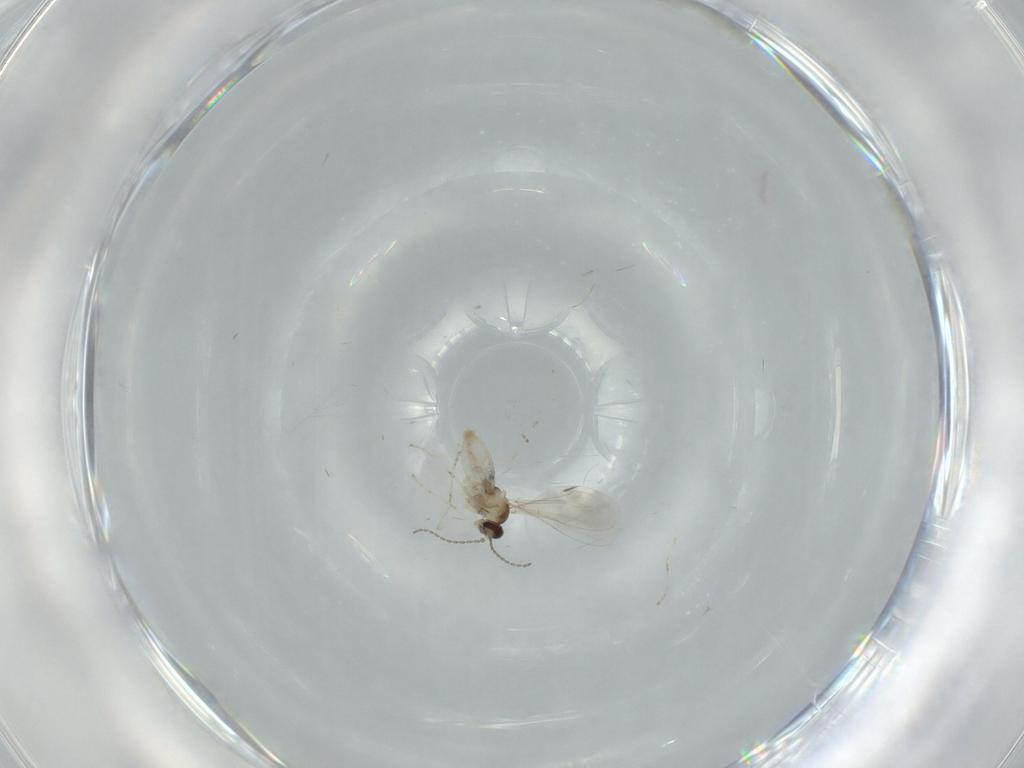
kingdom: Animalia
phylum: Arthropoda
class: Insecta
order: Diptera
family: Cecidomyiidae
